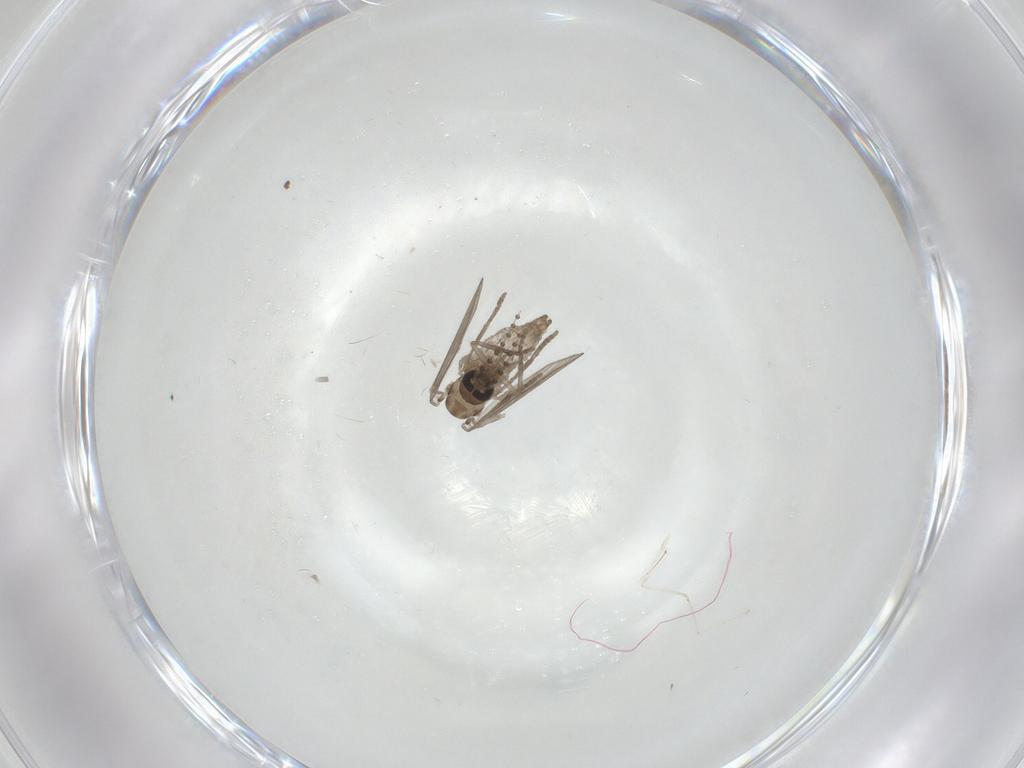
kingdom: Animalia
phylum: Arthropoda
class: Insecta
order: Diptera
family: Psychodidae
